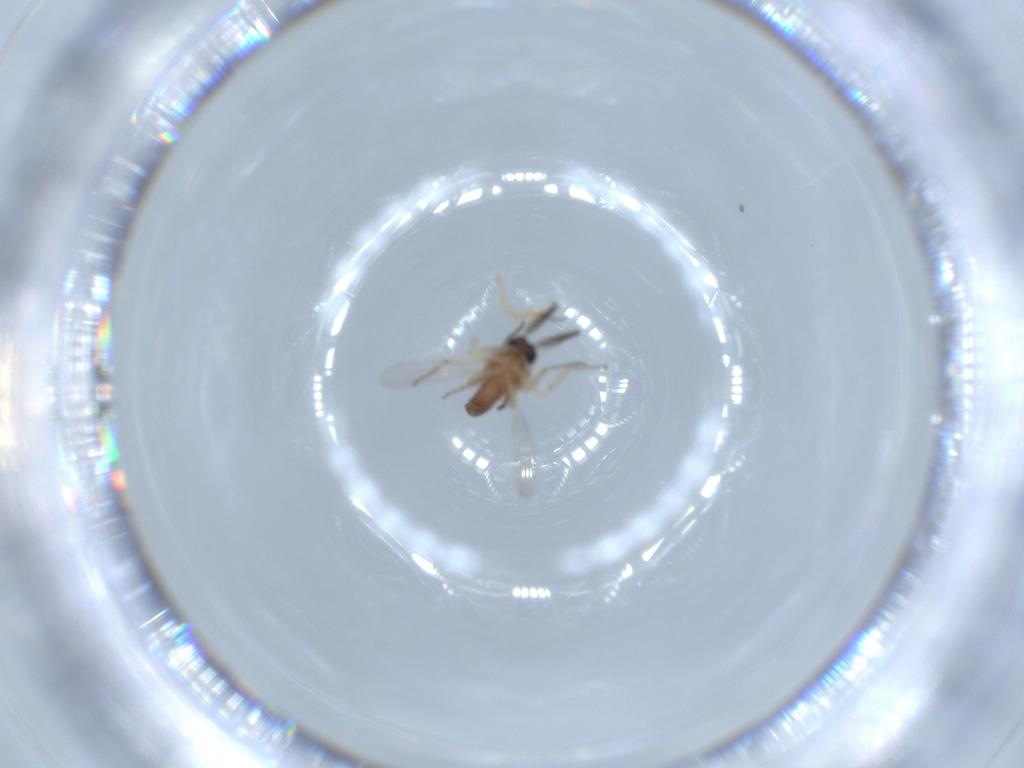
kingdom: Animalia
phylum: Arthropoda
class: Insecta
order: Diptera
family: Ceratopogonidae
